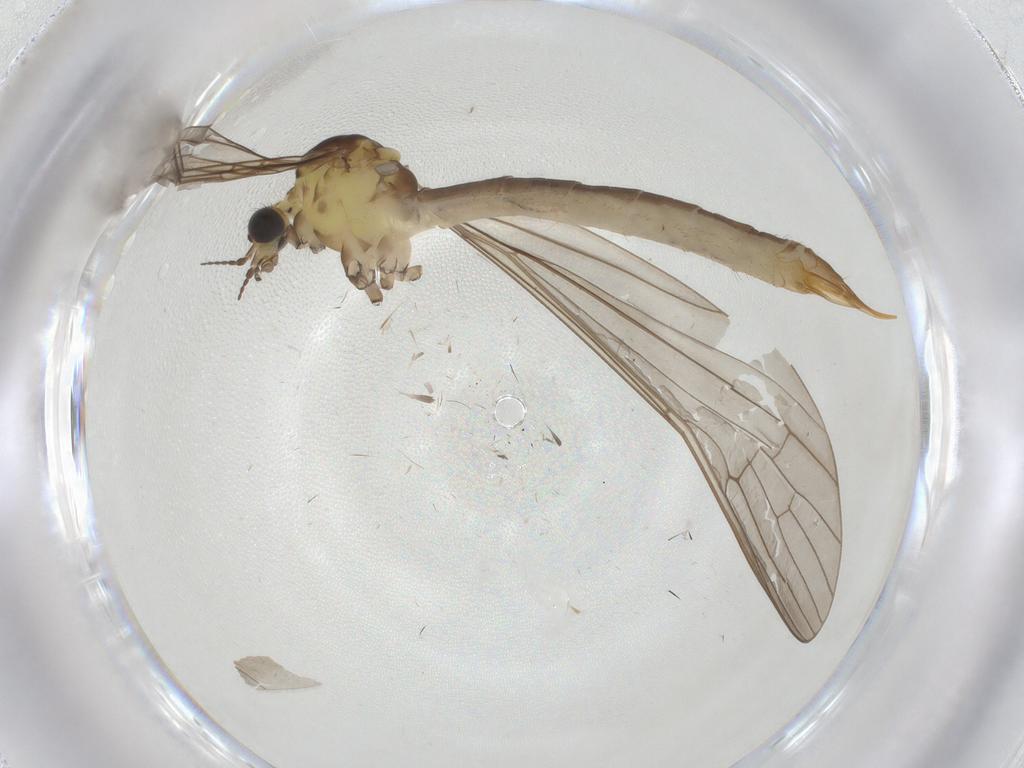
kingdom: Animalia
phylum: Arthropoda
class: Insecta
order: Diptera
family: Limoniidae
